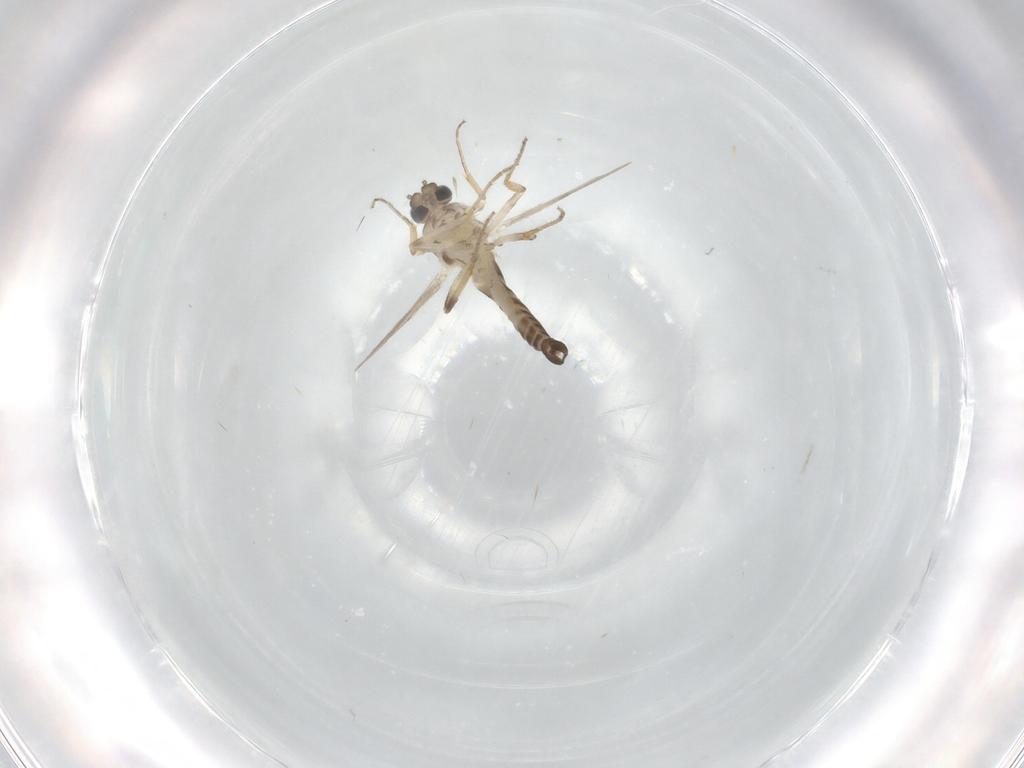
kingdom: Animalia
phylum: Arthropoda
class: Insecta
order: Diptera
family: Ceratopogonidae
